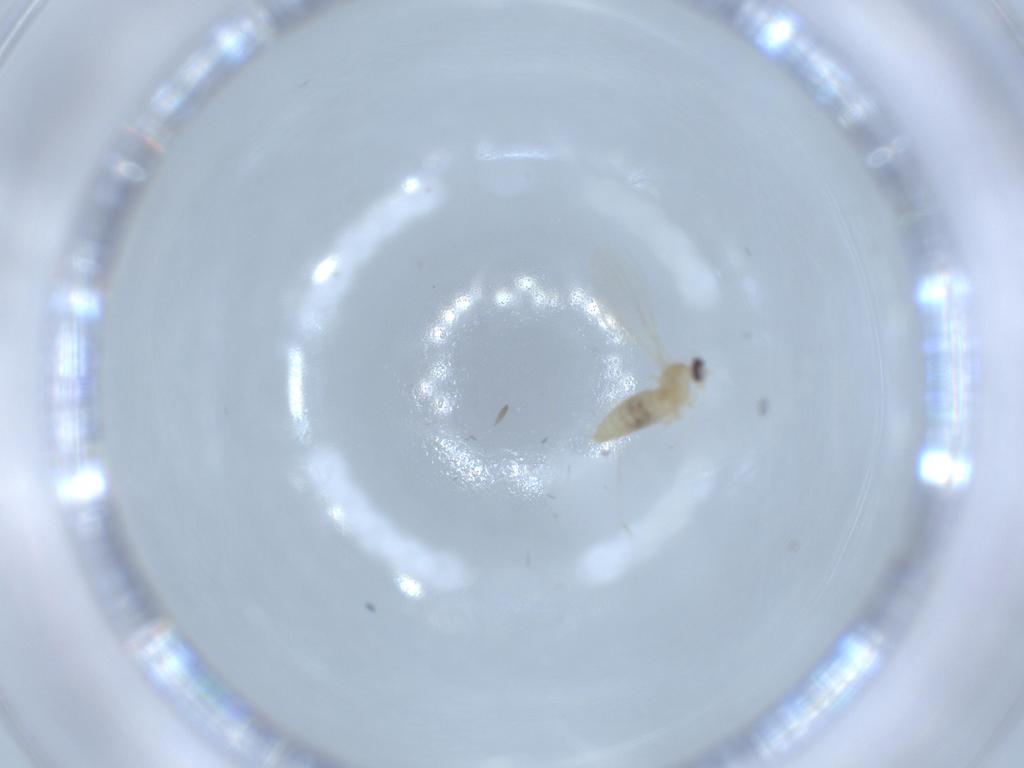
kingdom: Animalia
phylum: Arthropoda
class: Insecta
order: Diptera
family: Cecidomyiidae
